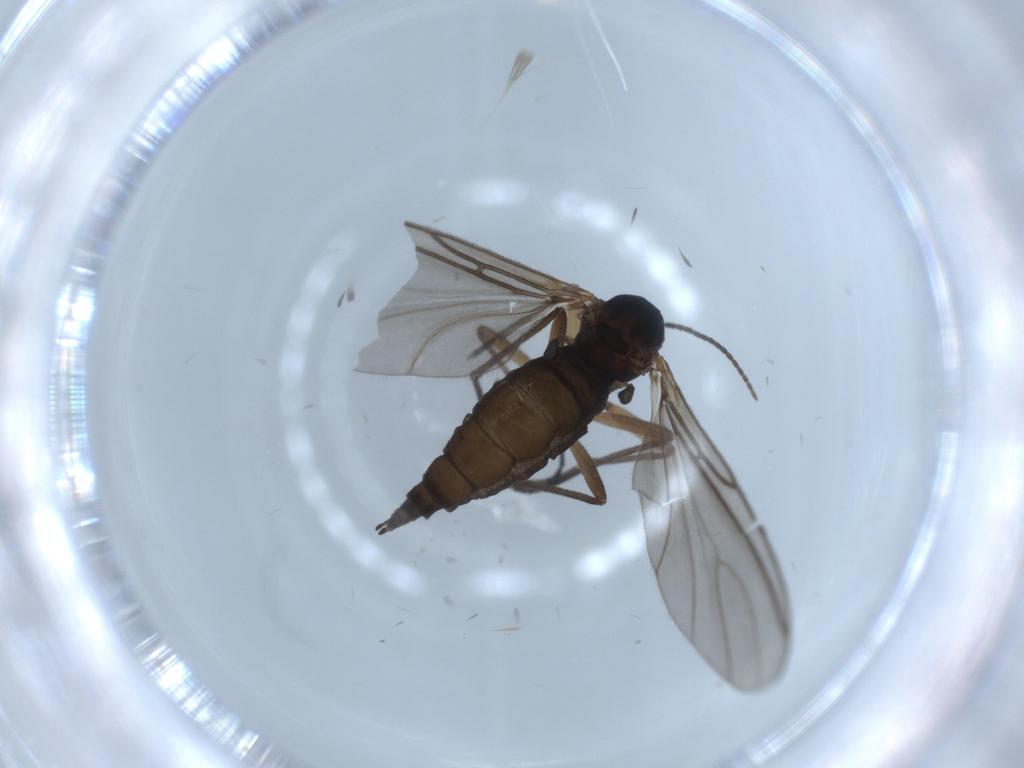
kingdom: Animalia
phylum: Arthropoda
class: Insecta
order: Diptera
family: Sciaridae
